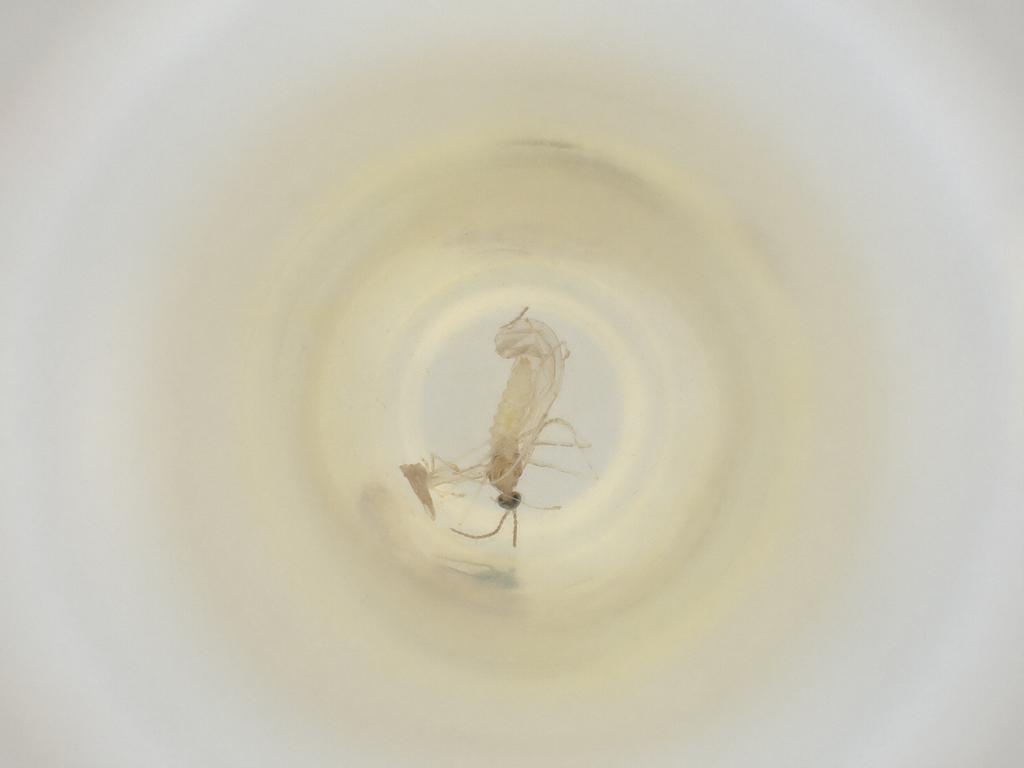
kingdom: Animalia
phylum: Arthropoda
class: Insecta
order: Diptera
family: Cecidomyiidae
